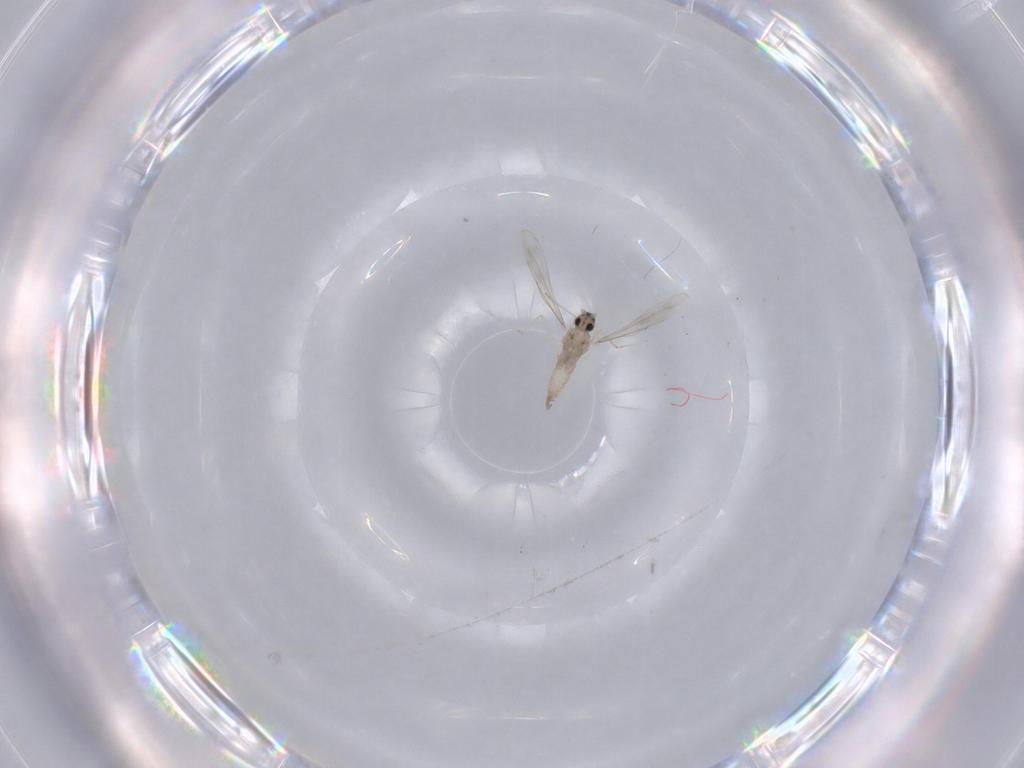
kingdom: Animalia
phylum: Arthropoda
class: Insecta
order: Diptera
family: Cecidomyiidae
